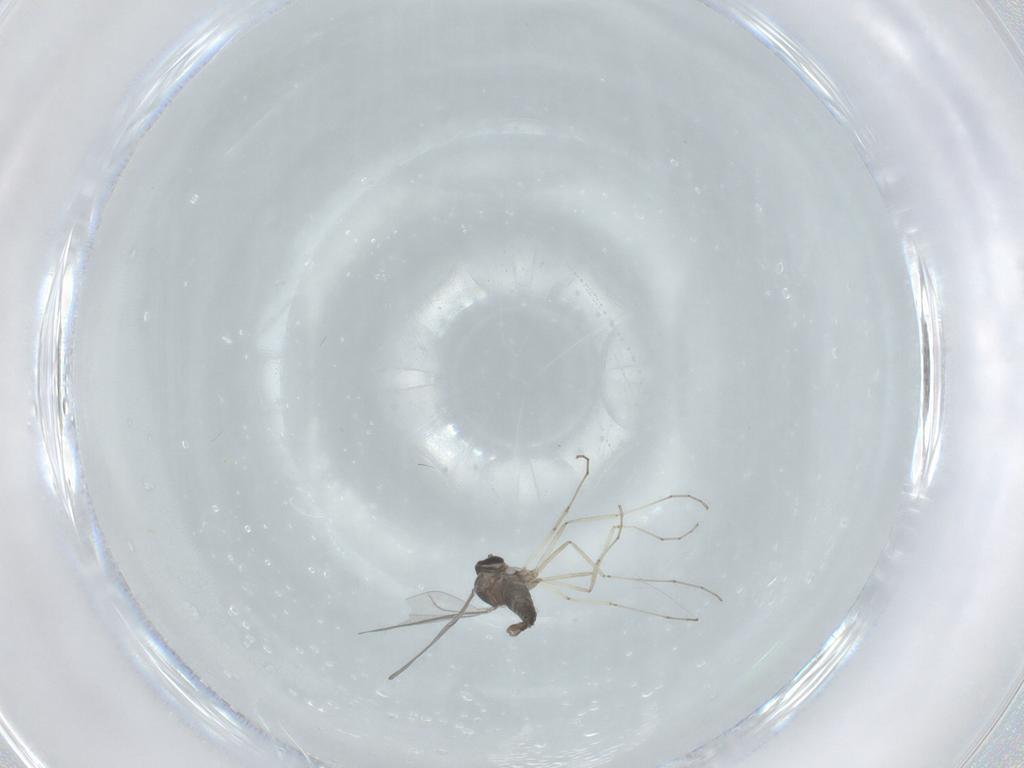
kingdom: Animalia
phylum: Arthropoda
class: Insecta
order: Diptera
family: Cecidomyiidae
